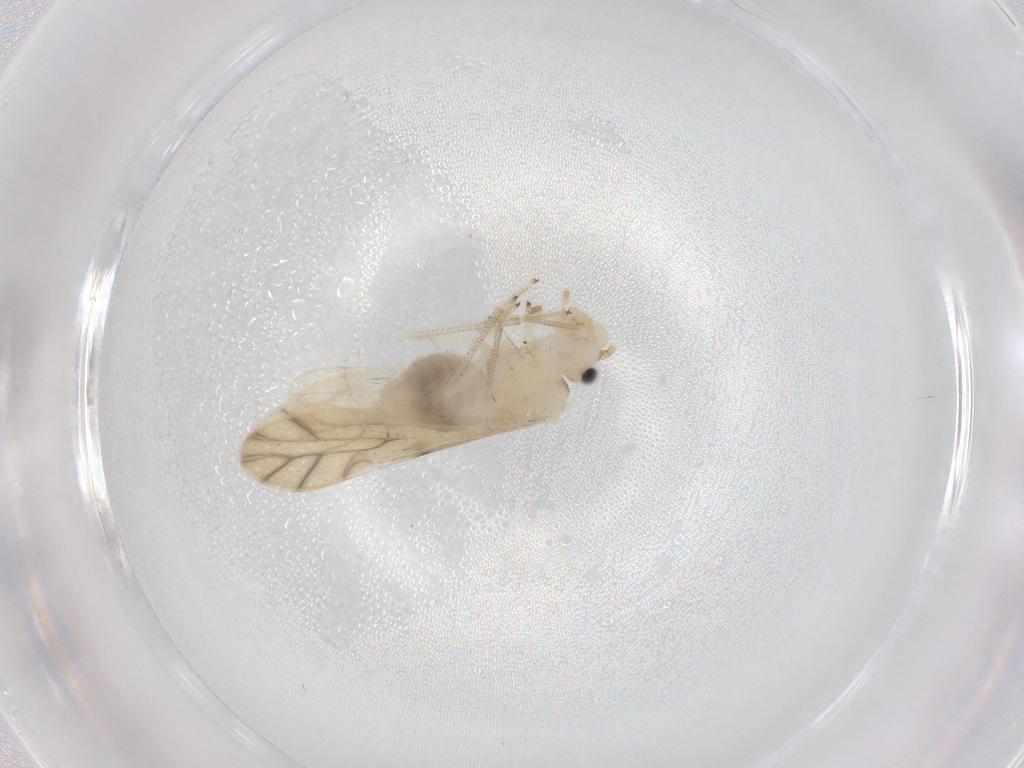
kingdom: Animalia
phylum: Arthropoda
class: Insecta
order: Psocodea
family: Caeciliusidae
